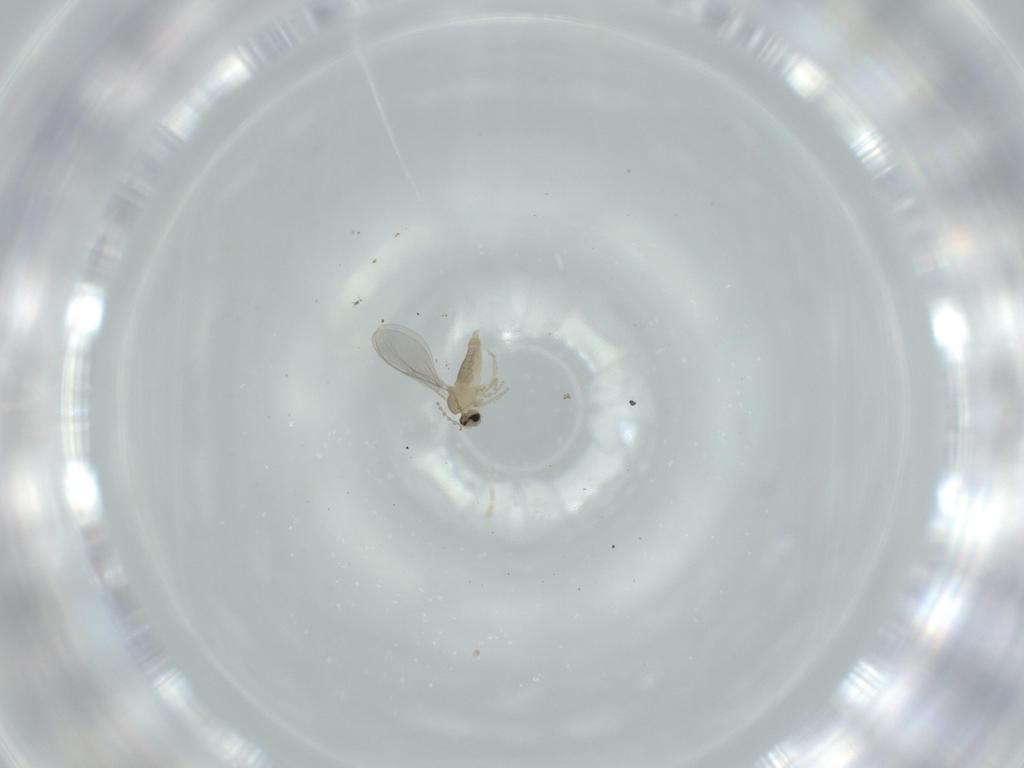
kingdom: Animalia
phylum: Arthropoda
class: Insecta
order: Diptera
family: Cecidomyiidae
